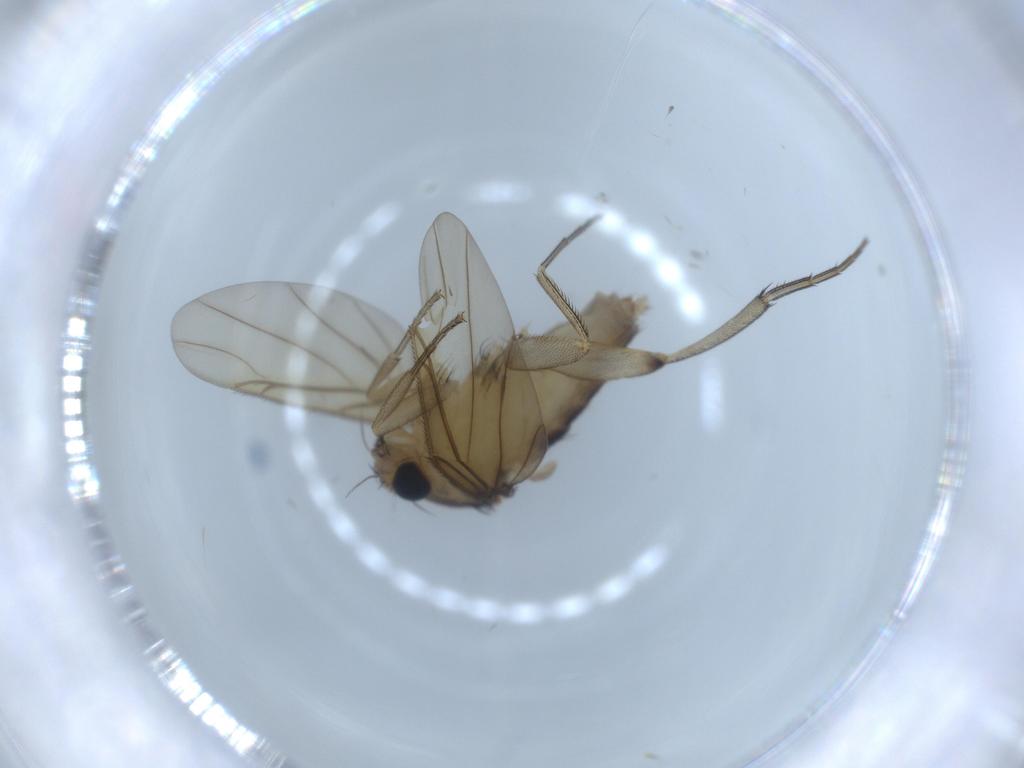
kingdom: Animalia
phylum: Arthropoda
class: Insecta
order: Diptera
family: Phoridae
